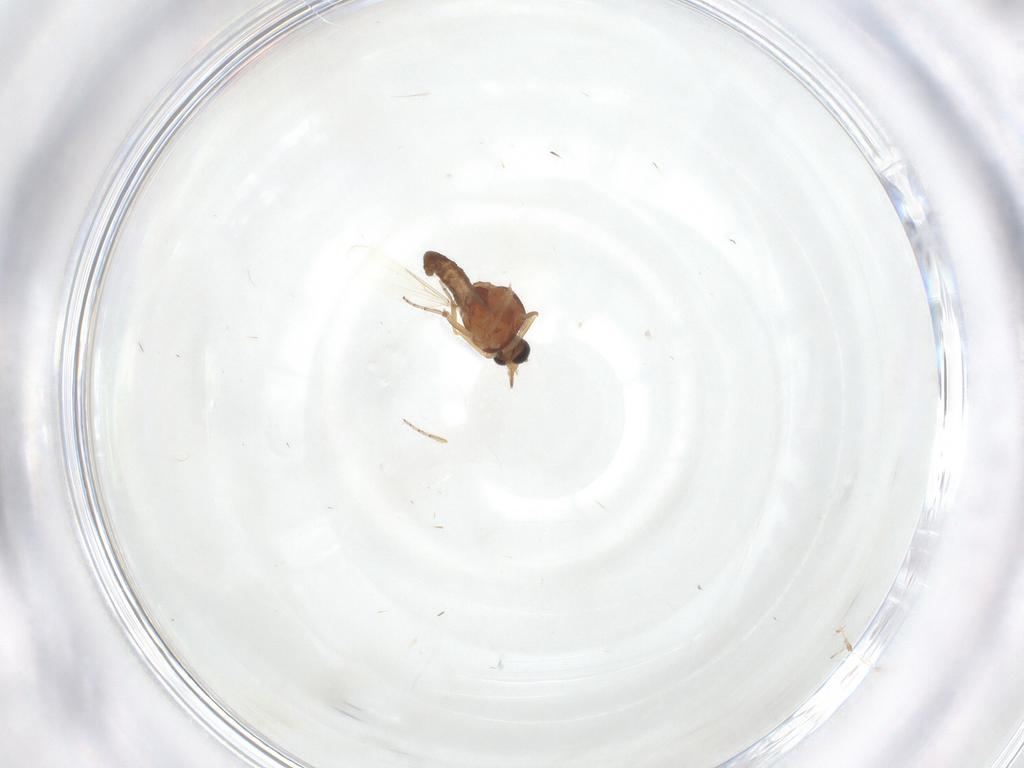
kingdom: Animalia
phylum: Arthropoda
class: Insecta
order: Diptera
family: Ceratopogonidae
